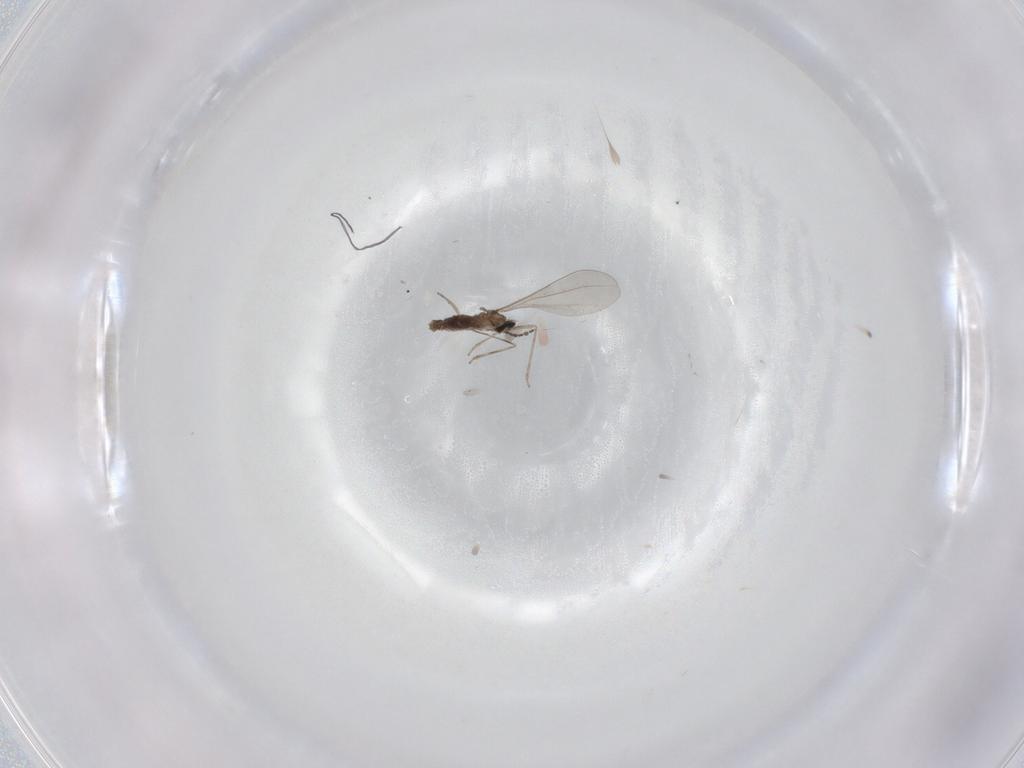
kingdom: Animalia
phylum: Arthropoda
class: Insecta
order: Diptera
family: Cecidomyiidae
